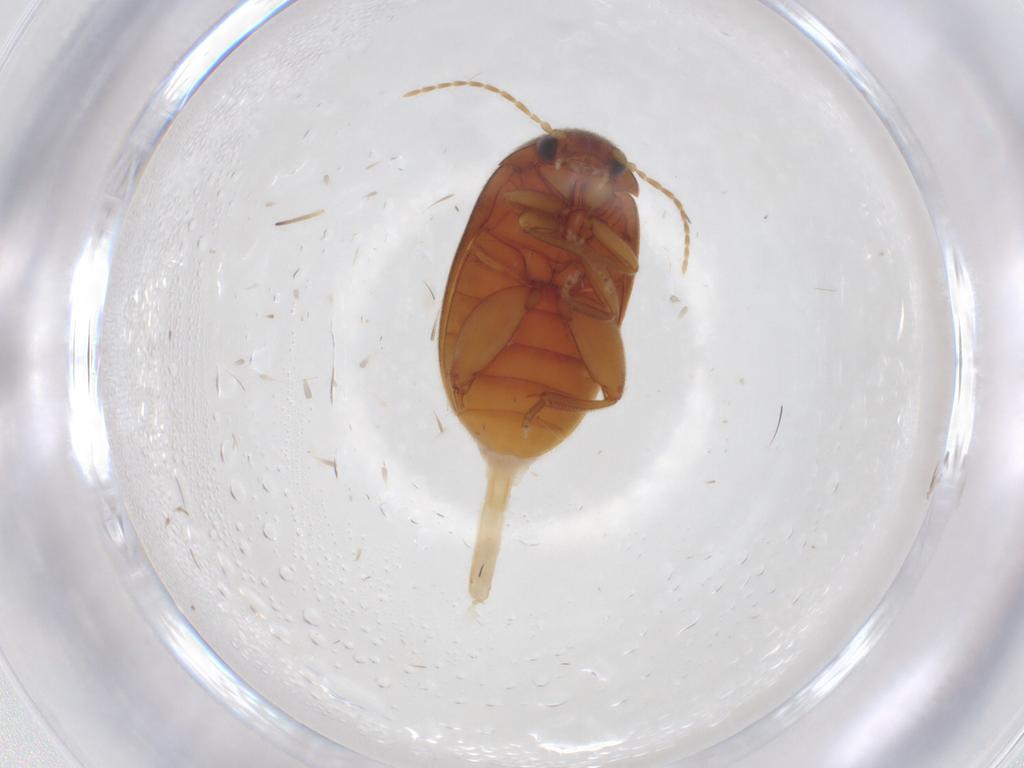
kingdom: Animalia
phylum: Arthropoda
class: Insecta
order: Coleoptera
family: Scirtidae
